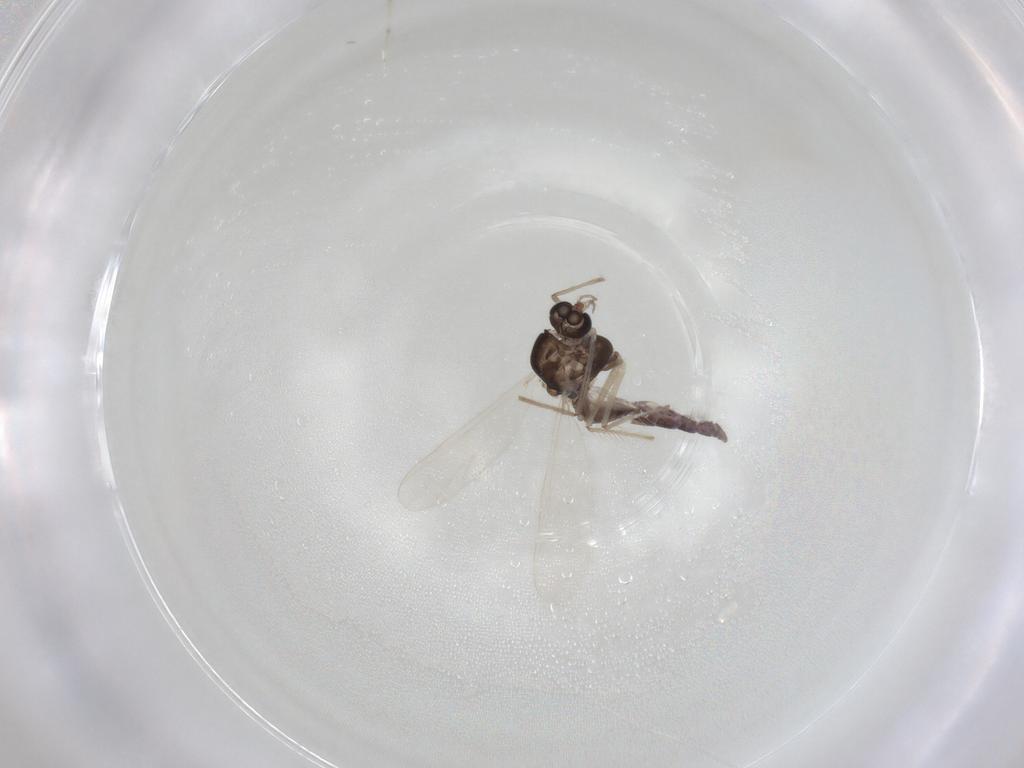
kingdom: Animalia
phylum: Arthropoda
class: Insecta
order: Diptera
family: Chironomidae
